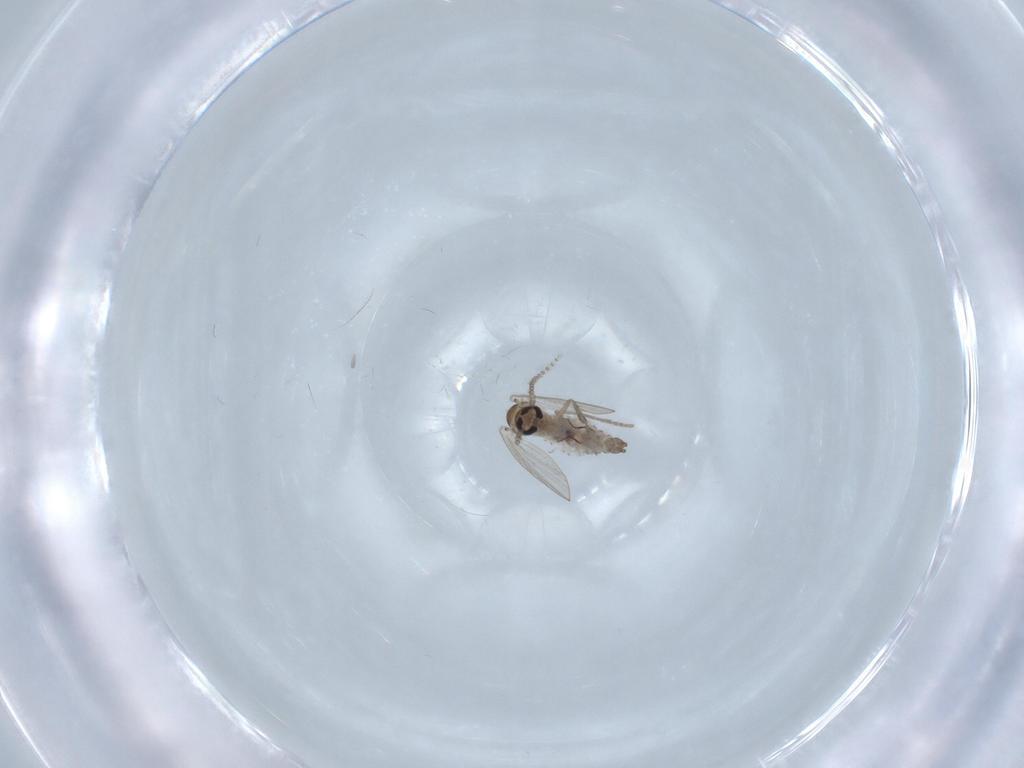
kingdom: Animalia
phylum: Arthropoda
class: Insecta
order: Diptera
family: Psychodidae
